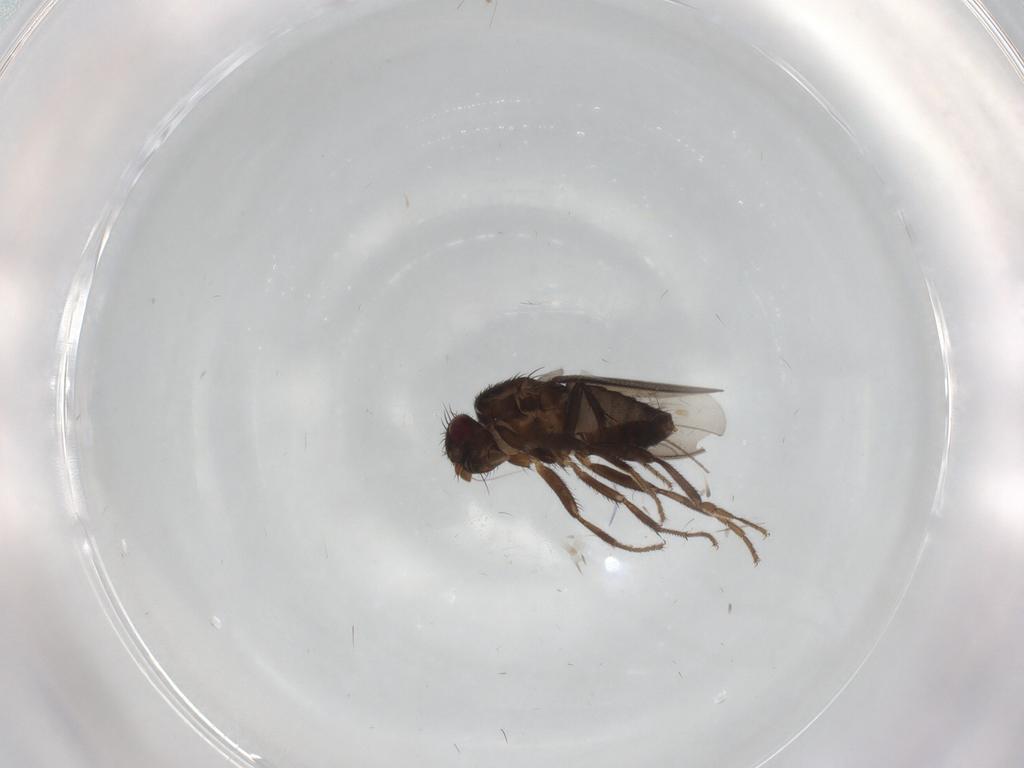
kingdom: Animalia
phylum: Arthropoda
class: Insecta
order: Diptera
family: Sphaeroceridae
